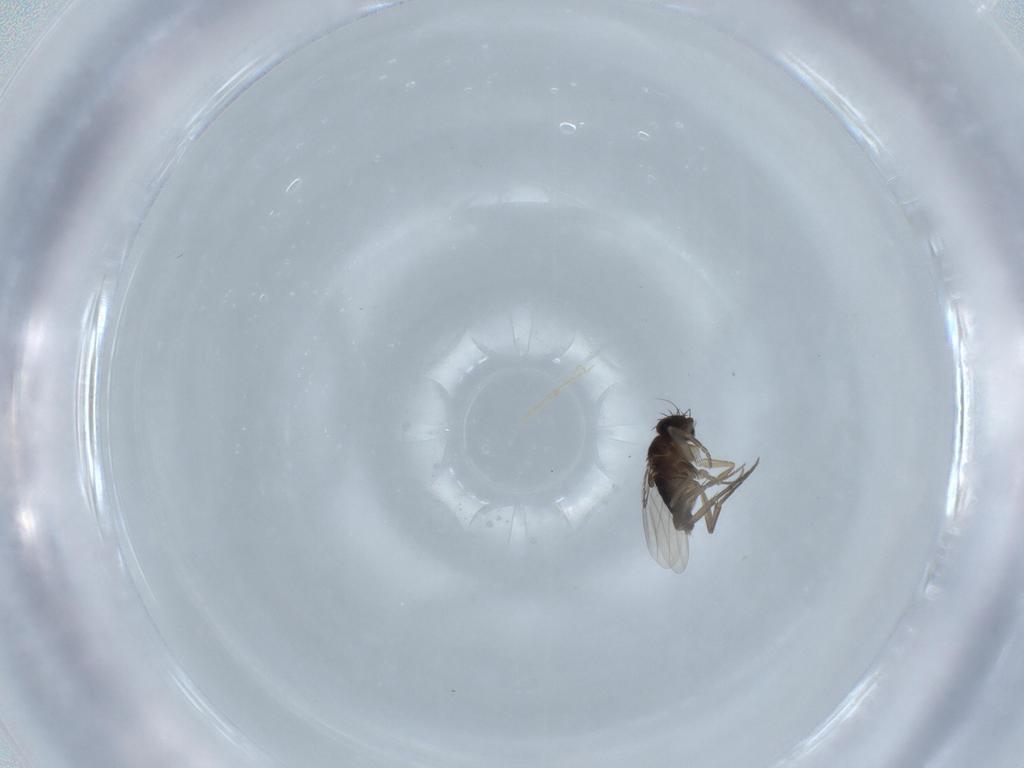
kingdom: Animalia
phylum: Arthropoda
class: Insecta
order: Diptera
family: Phoridae
